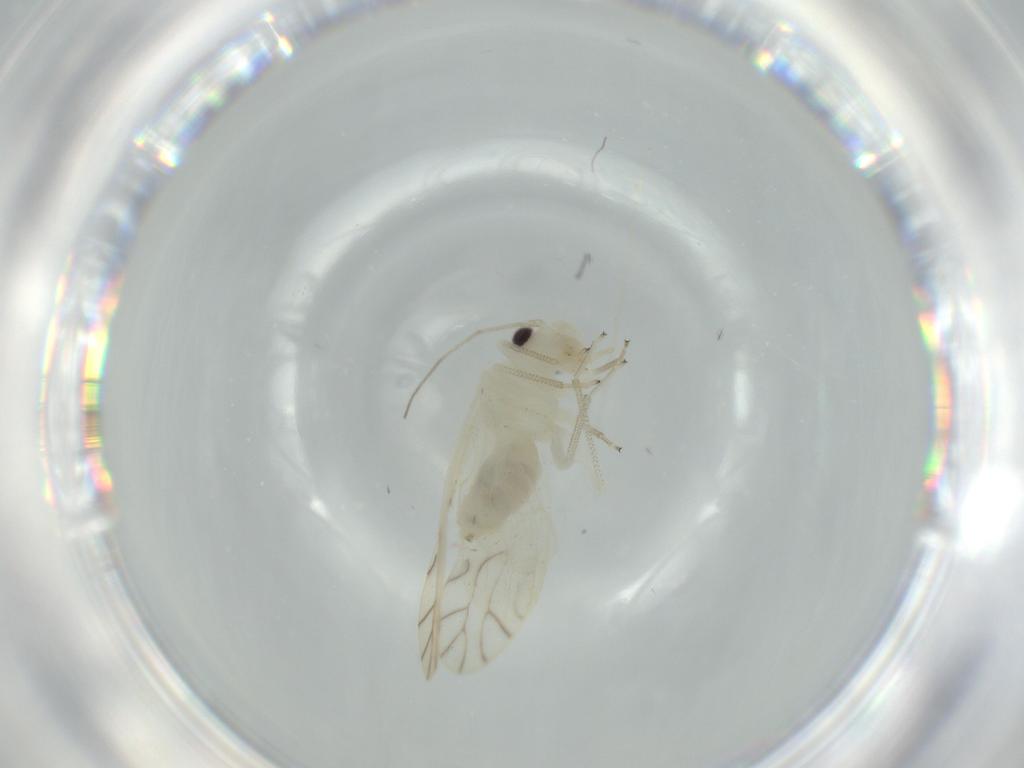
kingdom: Animalia
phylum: Arthropoda
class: Insecta
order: Psocodea
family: Caeciliusidae
